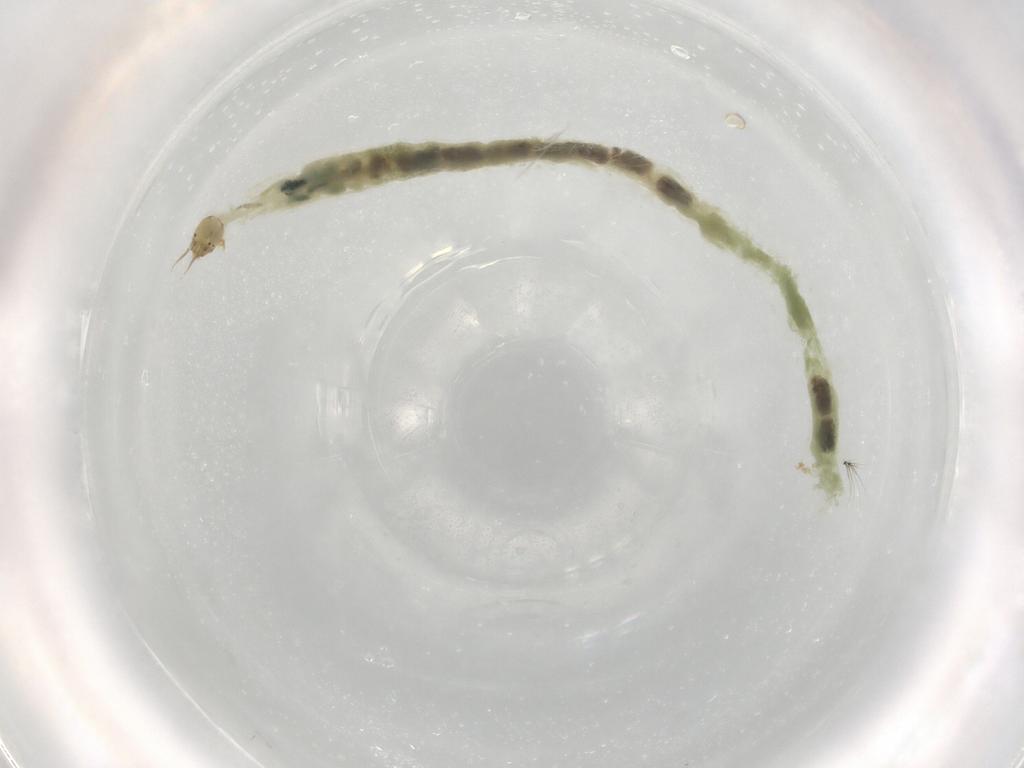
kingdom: Animalia
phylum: Arthropoda
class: Insecta
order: Diptera
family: Chironomidae
